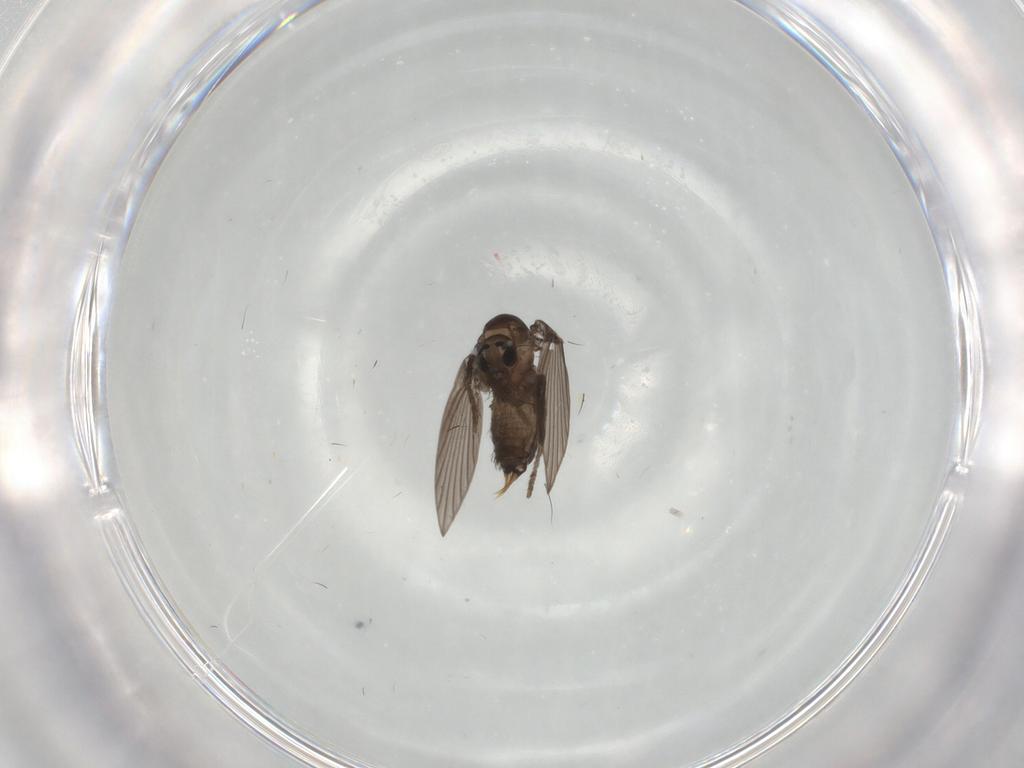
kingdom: Animalia
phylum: Arthropoda
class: Insecta
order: Diptera
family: Psychodidae
